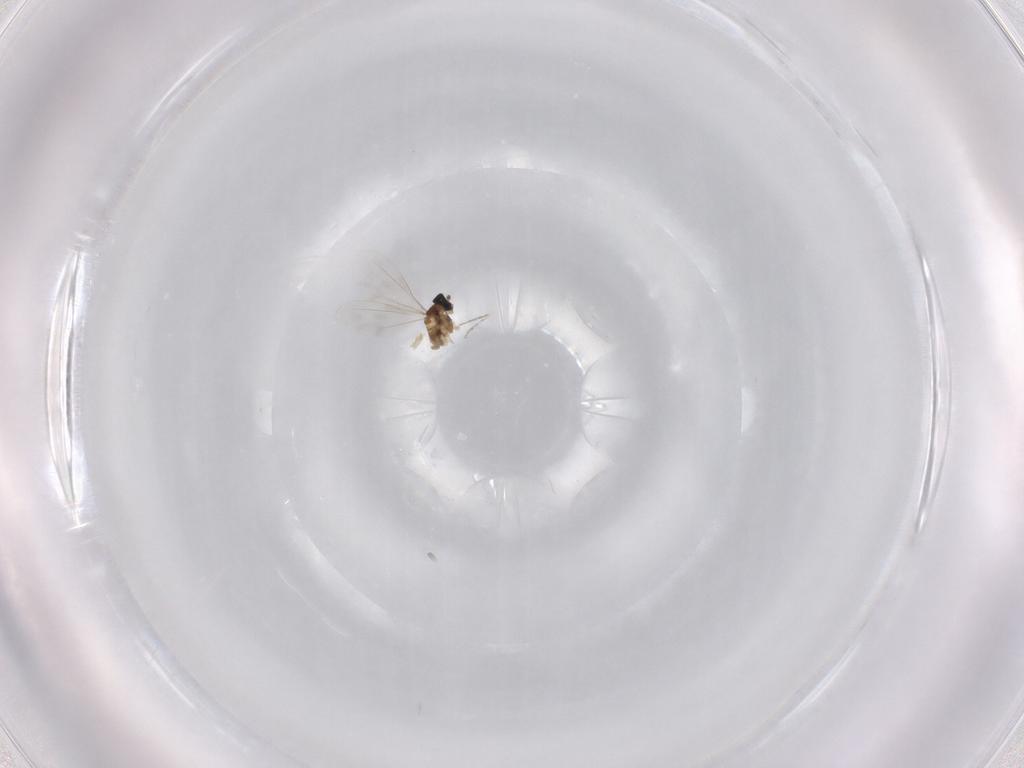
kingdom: Animalia
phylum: Arthropoda
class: Insecta
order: Diptera
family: Cecidomyiidae
